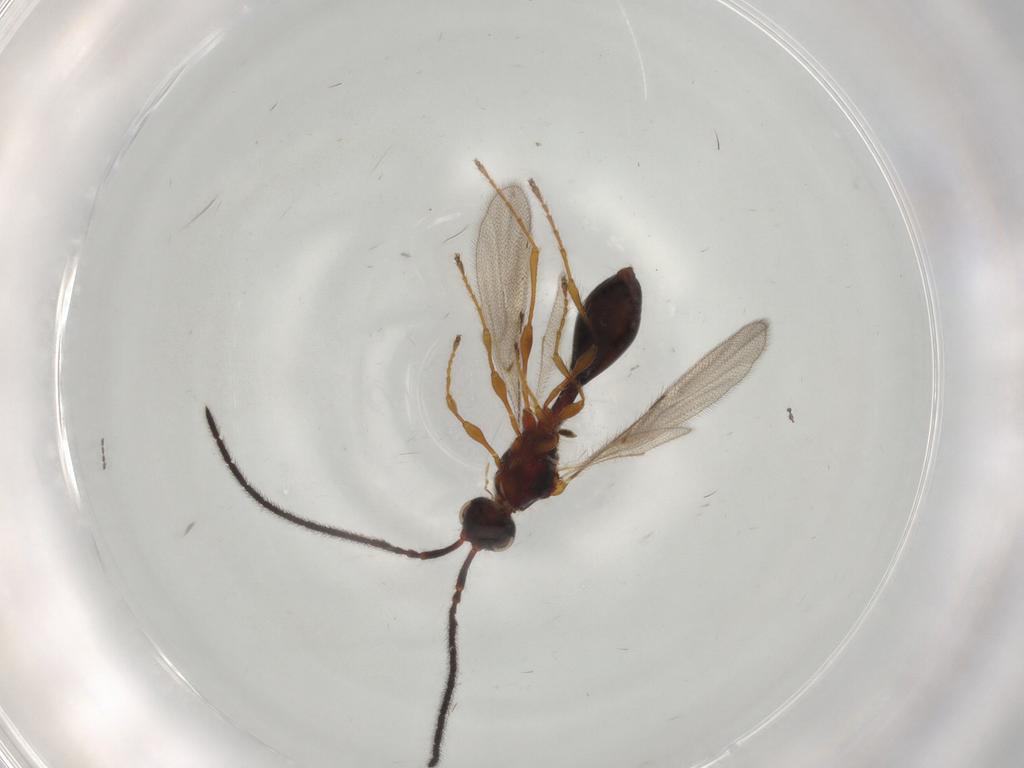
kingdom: Animalia
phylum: Arthropoda
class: Insecta
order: Hymenoptera
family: Diapriidae
